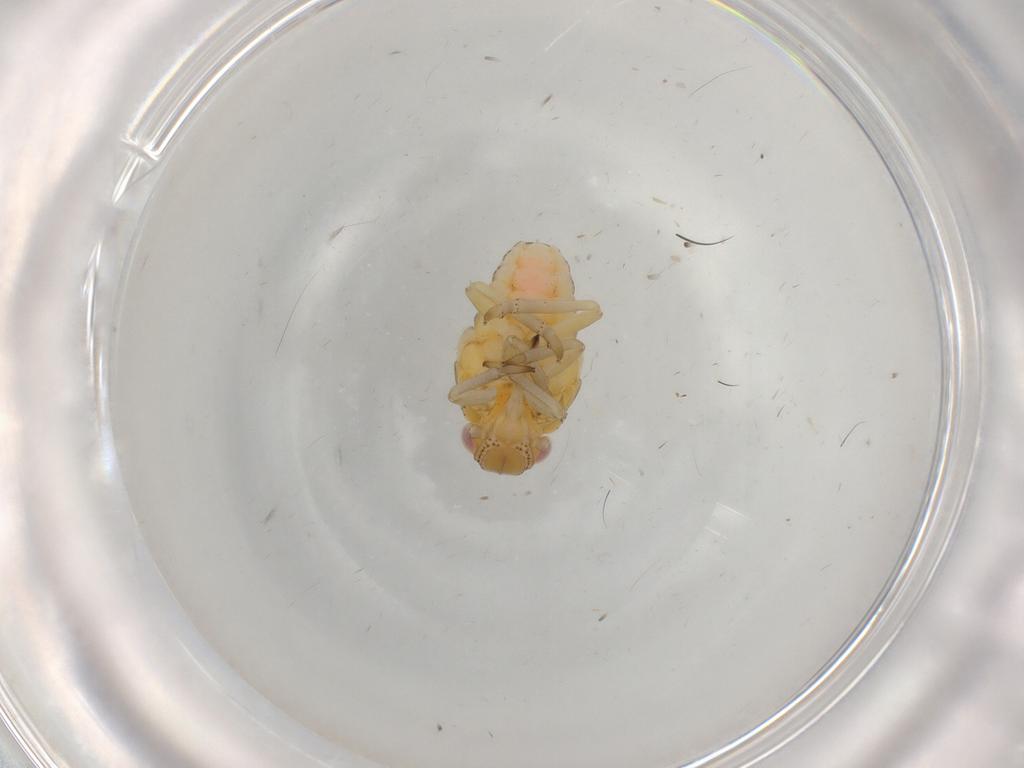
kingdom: Animalia
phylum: Arthropoda
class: Insecta
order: Hemiptera
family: Tropiduchidae
